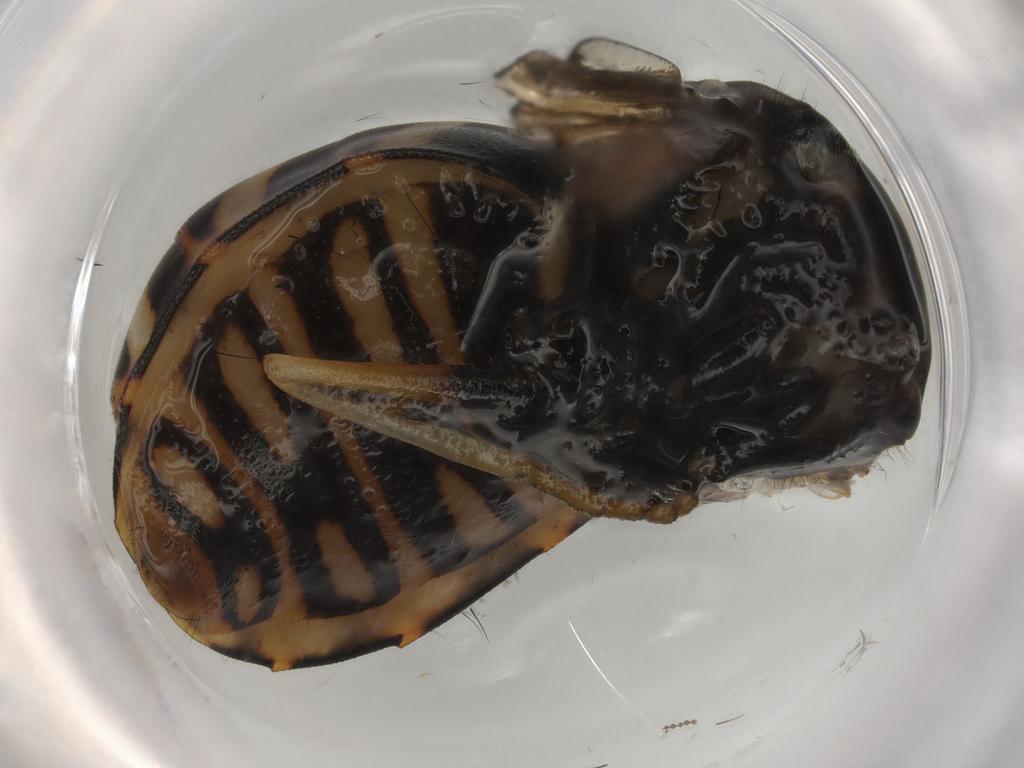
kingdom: Animalia
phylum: Arthropoda
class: Insecta
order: Diptera
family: Syrphidae
